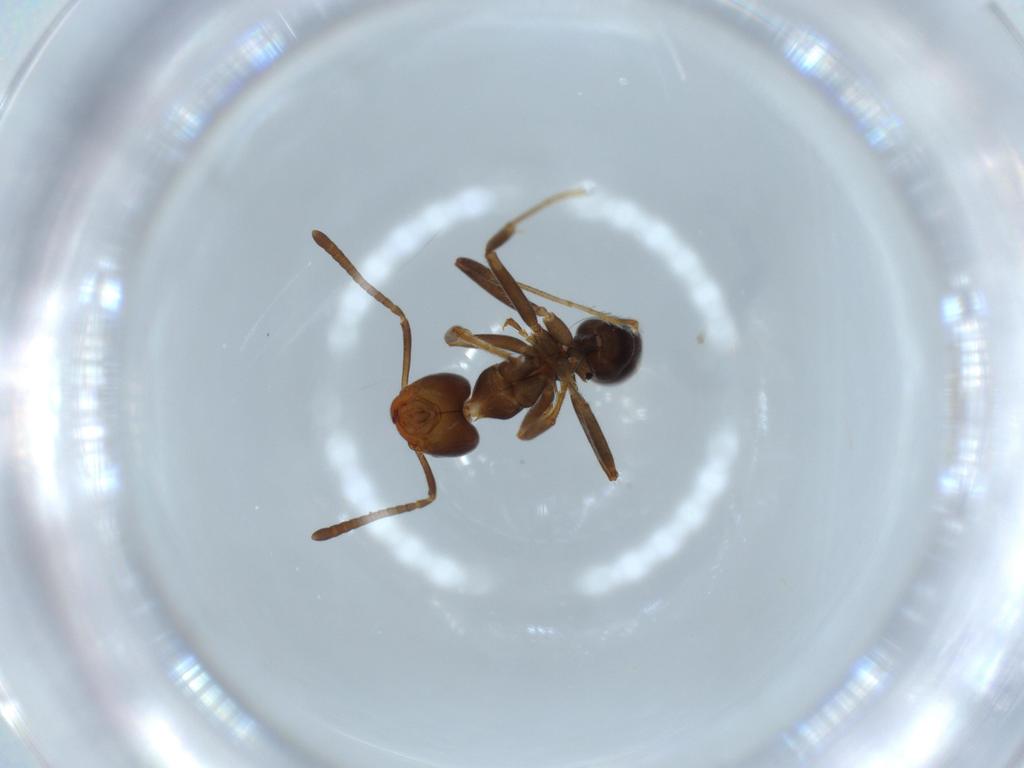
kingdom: Animalia
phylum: Arthropoda
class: Insecta
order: Hymenoptera
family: Formicidae
